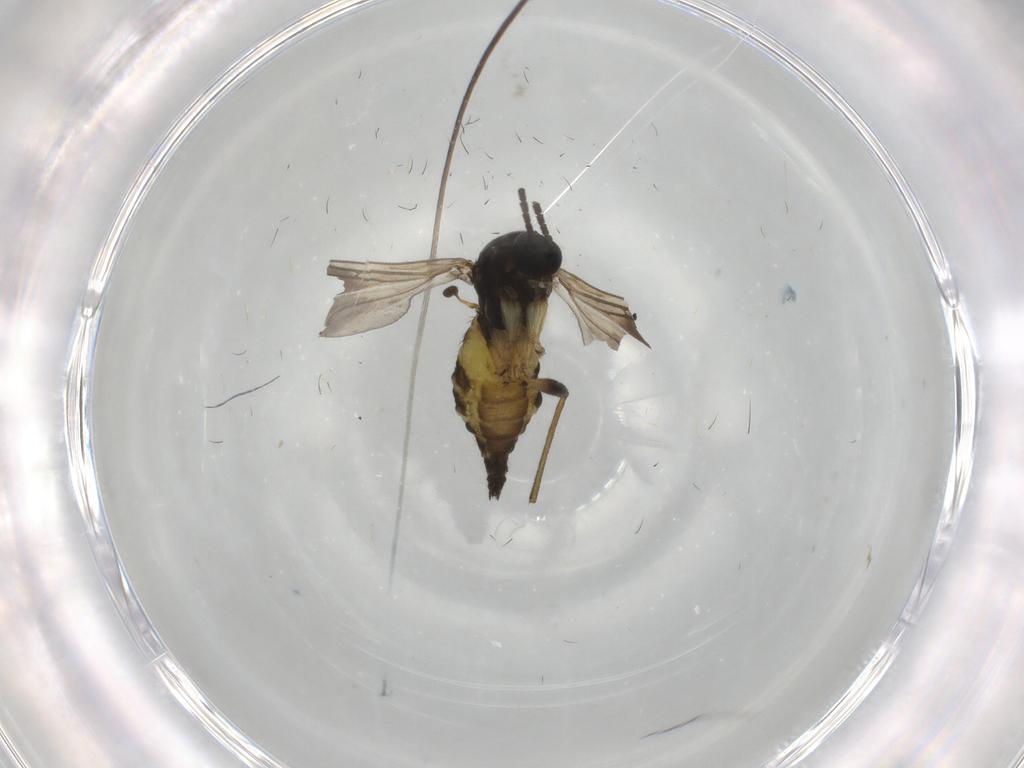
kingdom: Animalia
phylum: Arthropoda
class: Insecta
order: Diptera
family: Sciaridae
